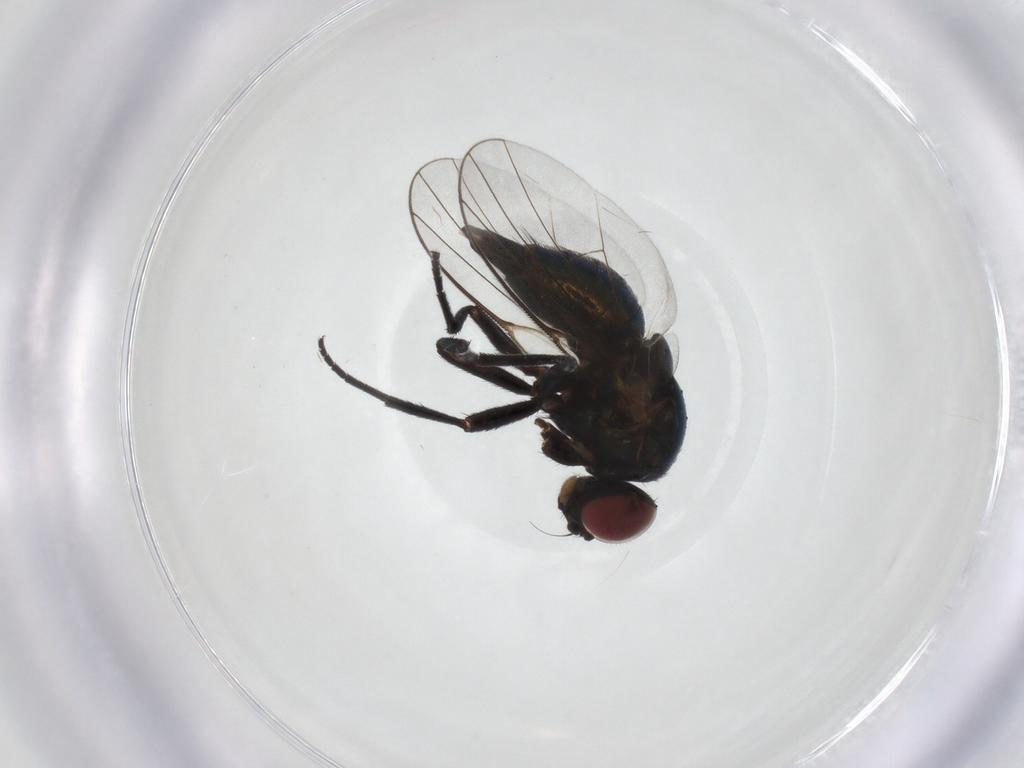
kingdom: Animalia
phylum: Arthropoda
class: Insecta
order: Diptera
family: Agromyzidae
